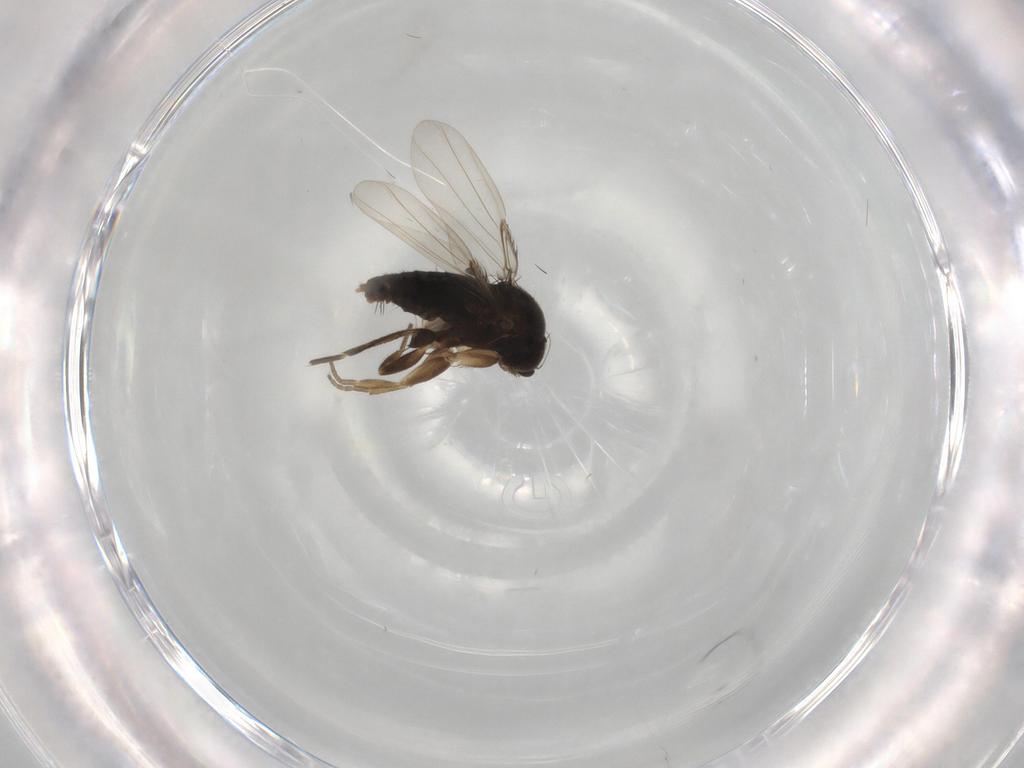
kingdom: Animalia
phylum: Arthropoda
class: Insecta
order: Diptera
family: Phoridae
